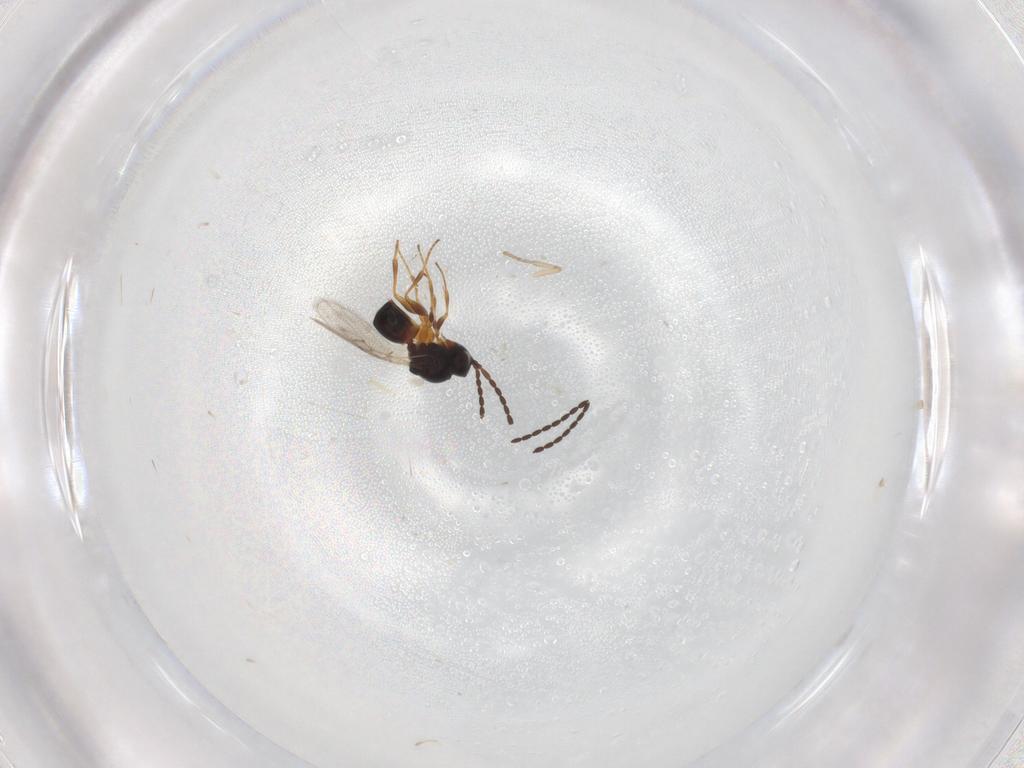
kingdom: Animalia
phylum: Arthropoda
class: Insecta
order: Hymenoptera
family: Figitidae
